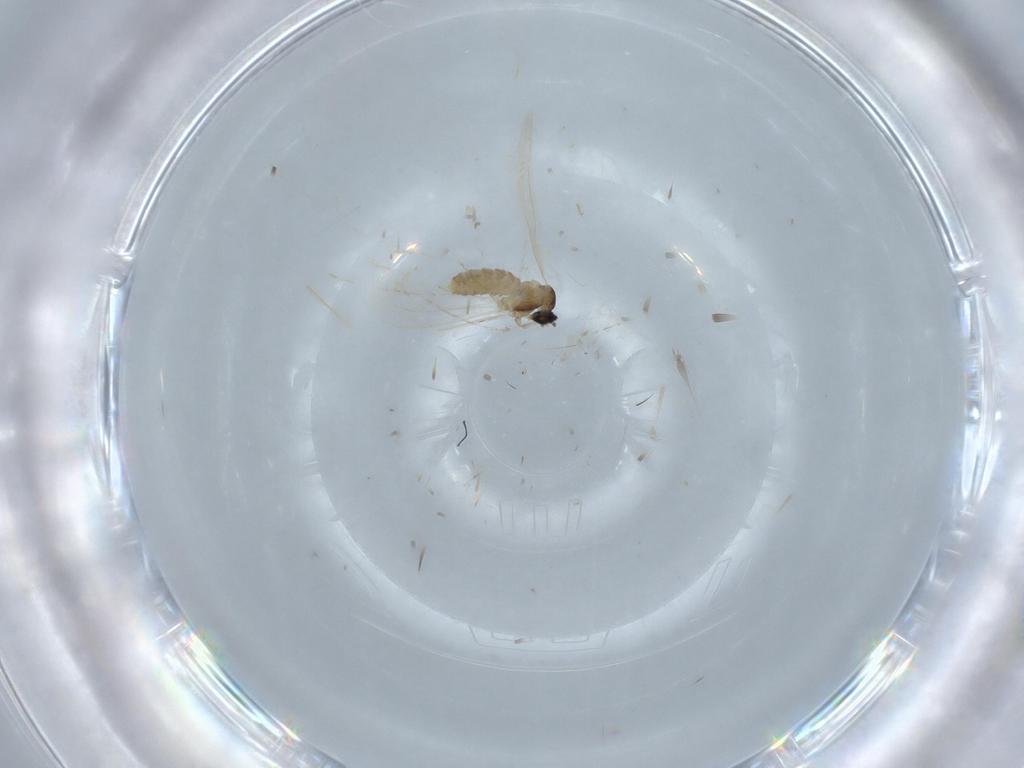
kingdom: Animalia
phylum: Arthropoda
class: Insecta
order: Diptera
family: Cecidomyiidae
